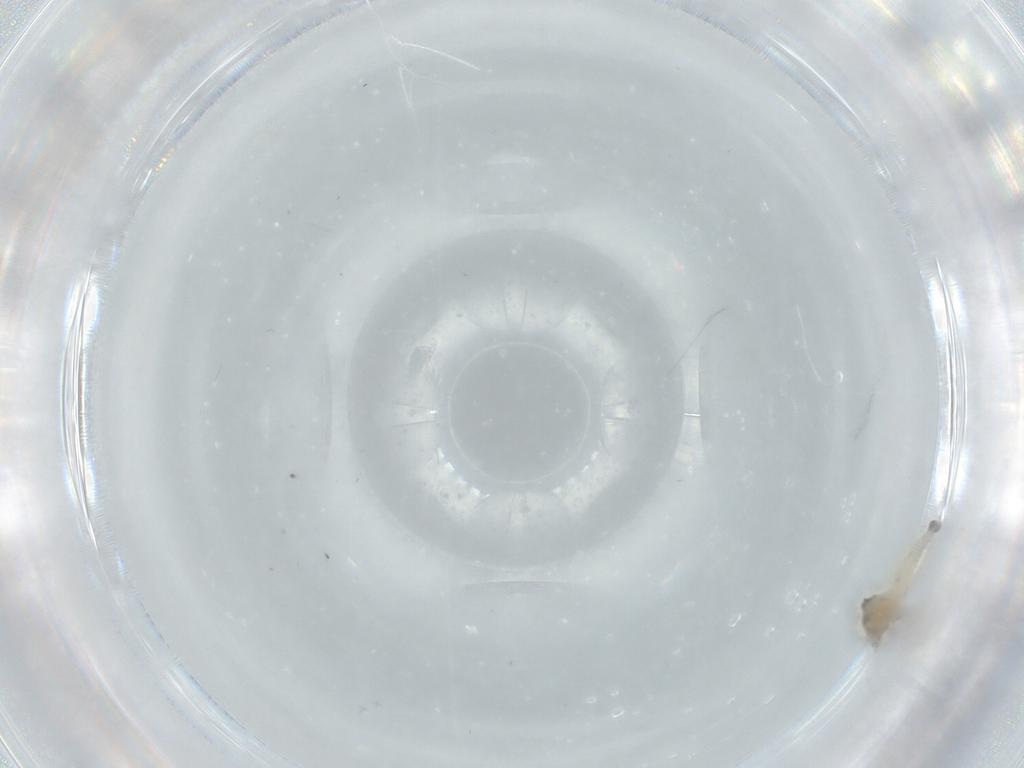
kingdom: Animalia
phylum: Arthropoda
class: Insecta
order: Diptera
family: Cecidomyiidae
